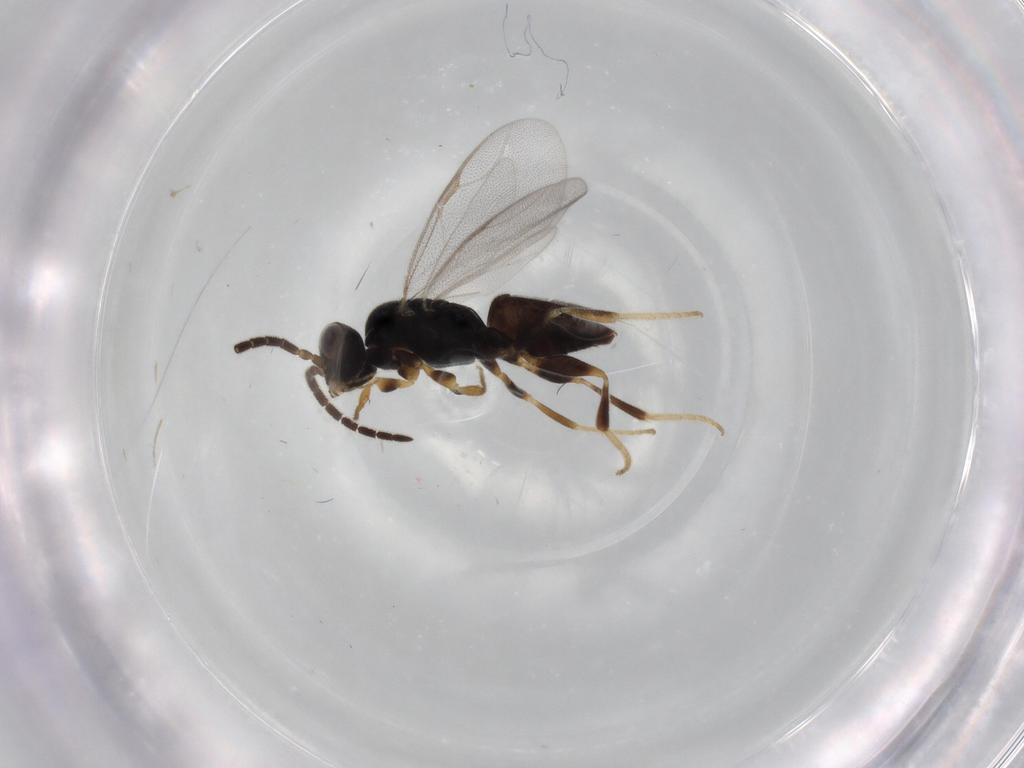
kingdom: Animalia
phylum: Arthropoda
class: Insecta
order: Hymenoptera
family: Dryinidae
